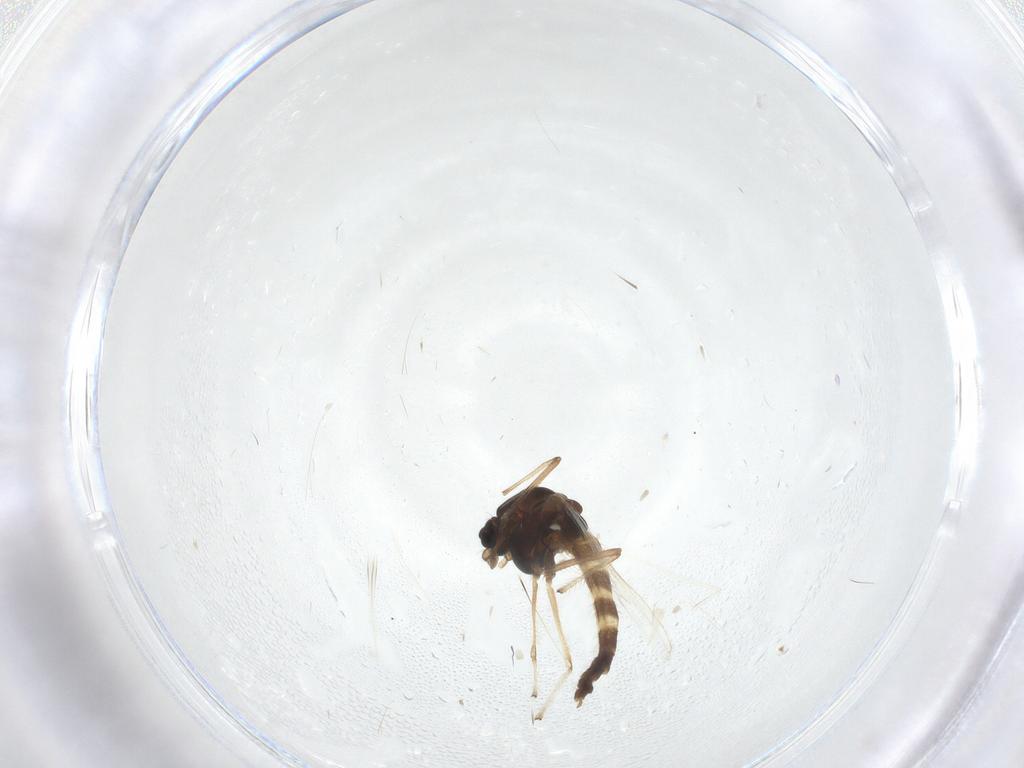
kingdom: Animalia
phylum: Arthropoda
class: Insecta
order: Diptera
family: Chironomidae
